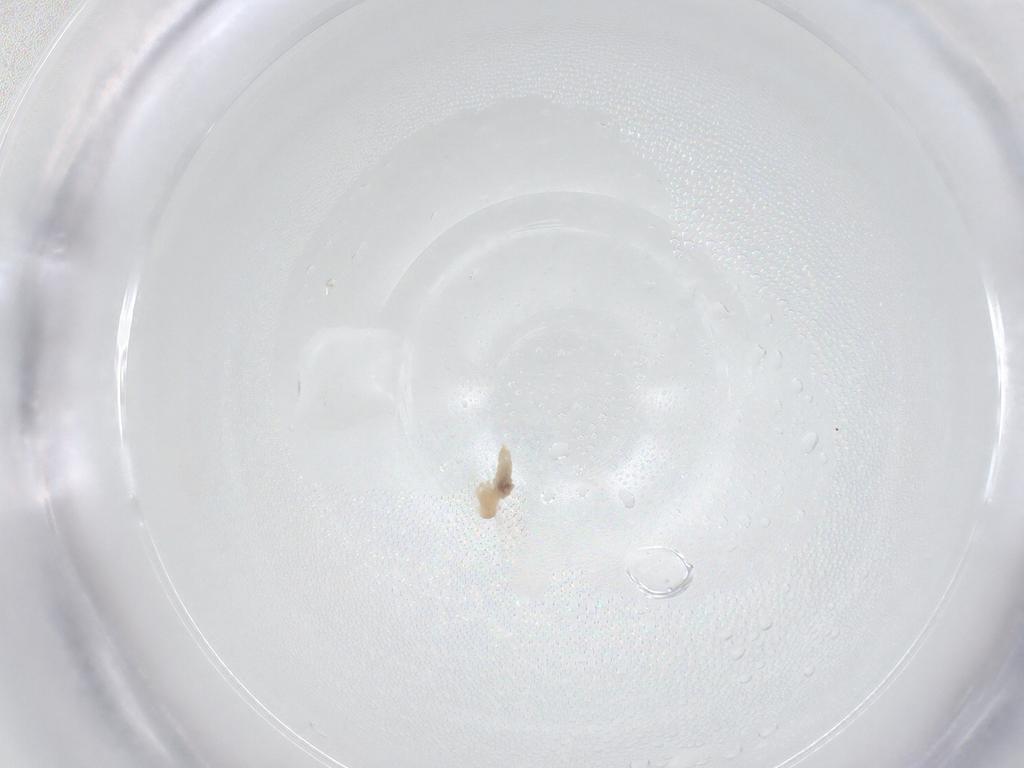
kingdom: Animalia
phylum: Arthropoda
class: Insecta
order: Diptera
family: Cecidomyiidae
